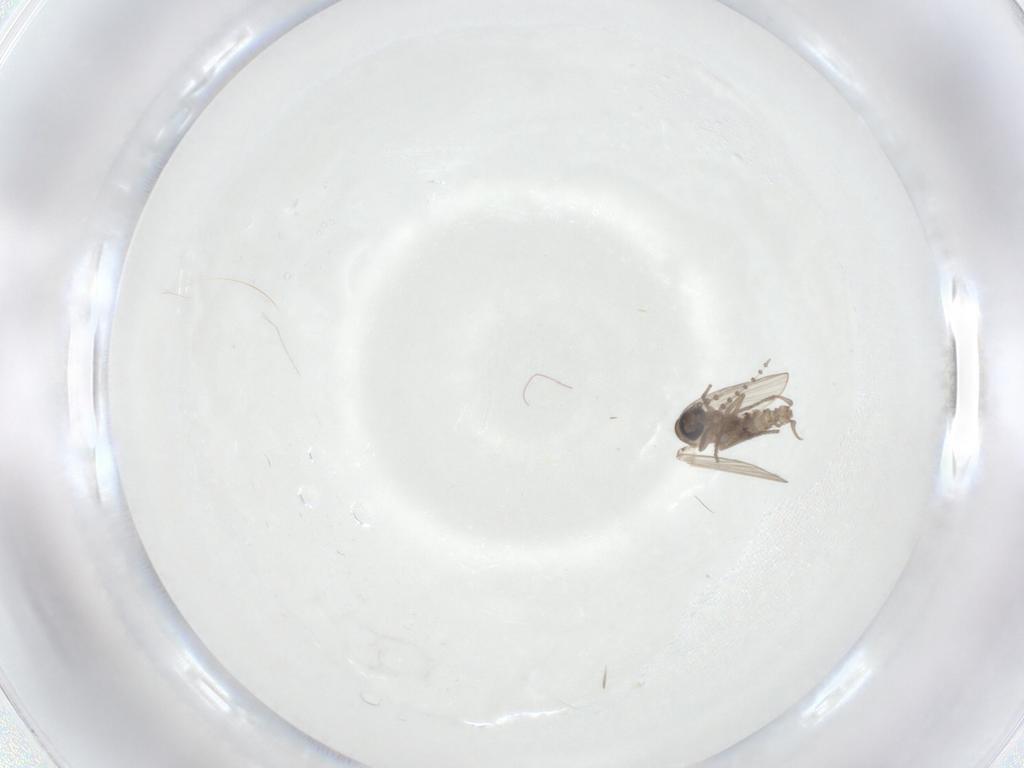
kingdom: Animalia
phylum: Arthropoda
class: Insecta
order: Diptera
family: Psychodidae
